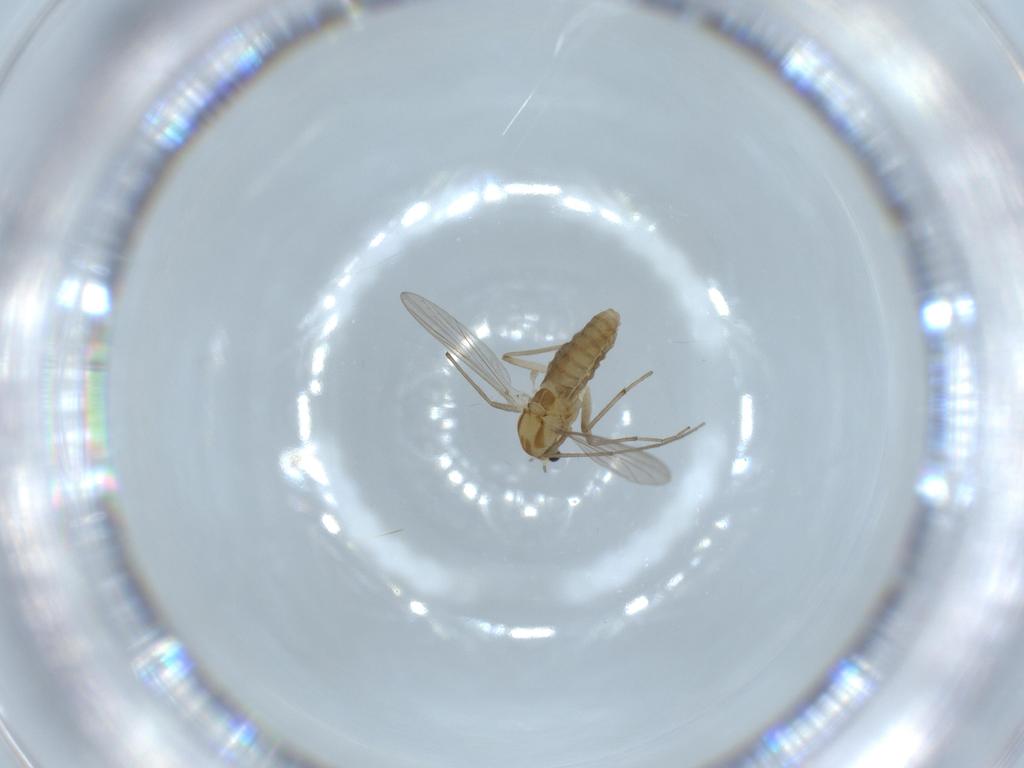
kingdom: Animalia
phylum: Arthropoda
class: Insecta
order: Diptera
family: Chironomidae
